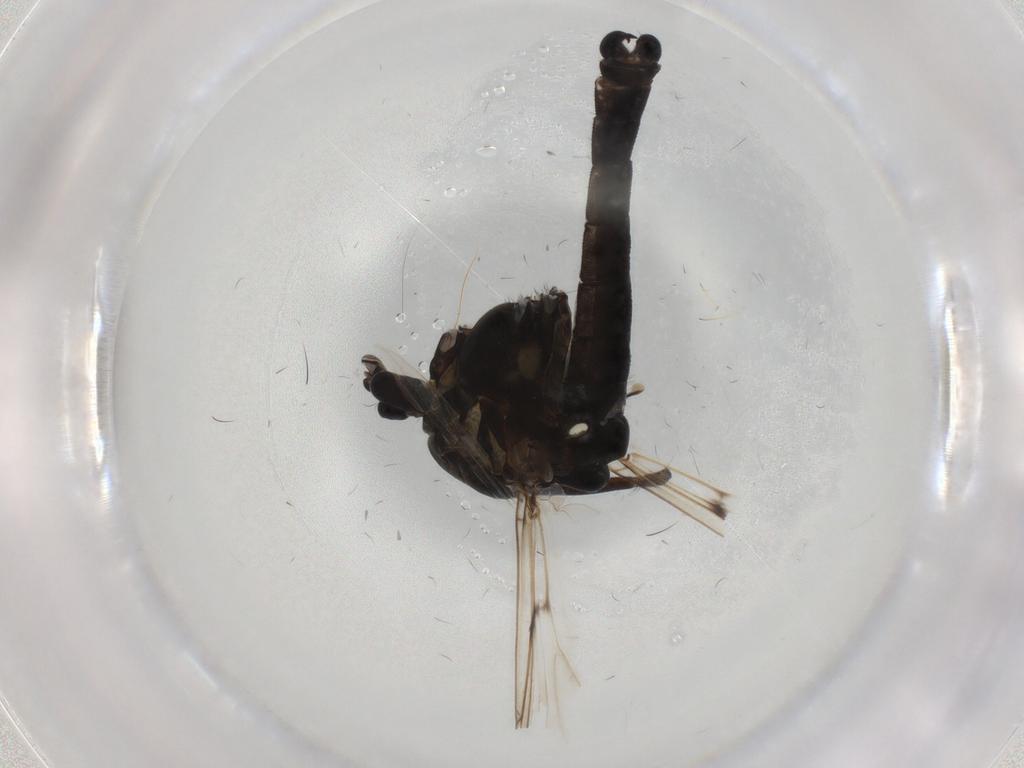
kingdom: Animalia
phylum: Arthropoda
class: Insecta
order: Diptera
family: Chironomidae
